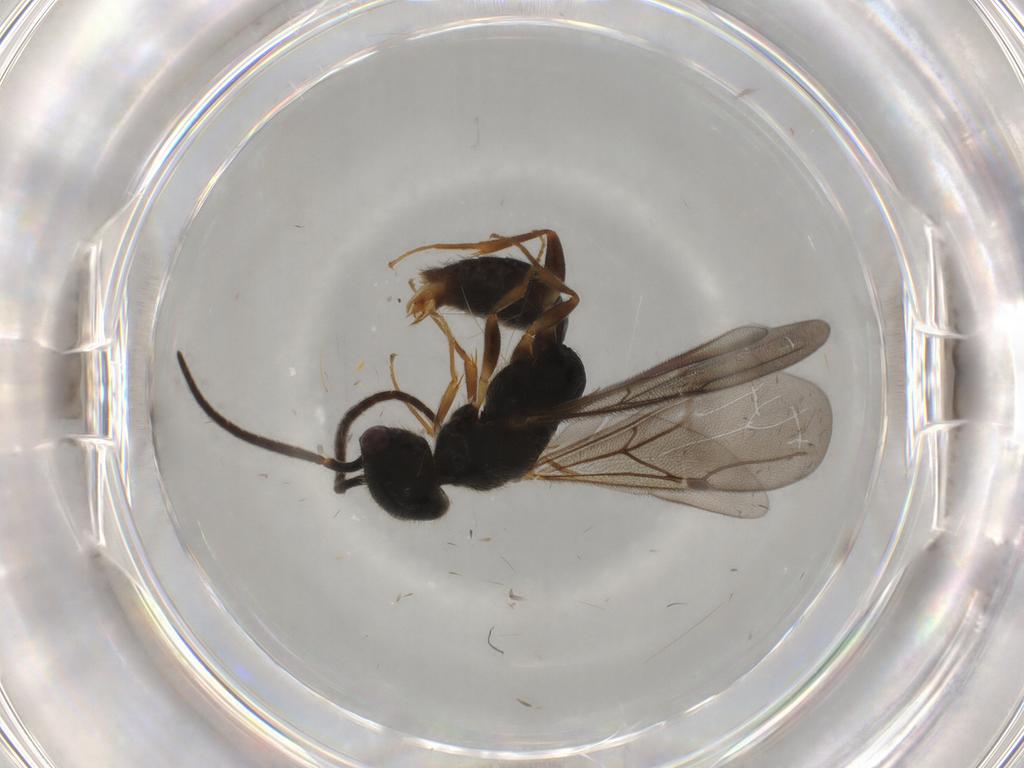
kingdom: Animalia
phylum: Arthropoda
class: Insecta
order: Hymenoptera
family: Bethylidae
